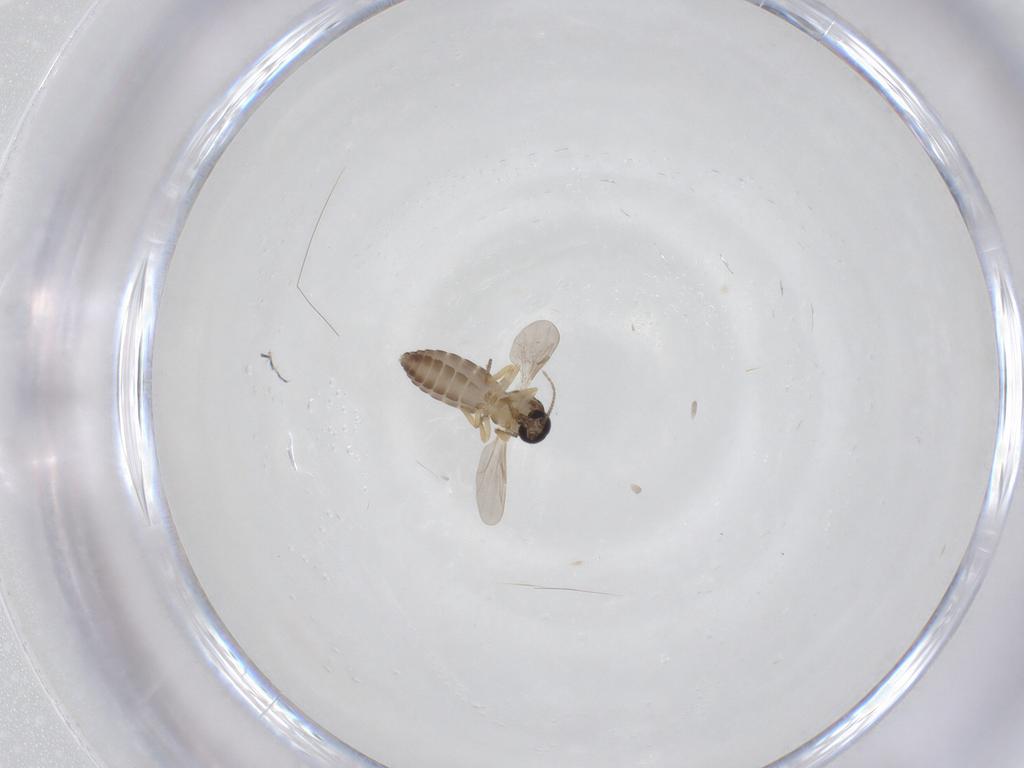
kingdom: Animalia
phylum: Arthropoda
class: Insecta
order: Diptera
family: Ceratopogonidae
